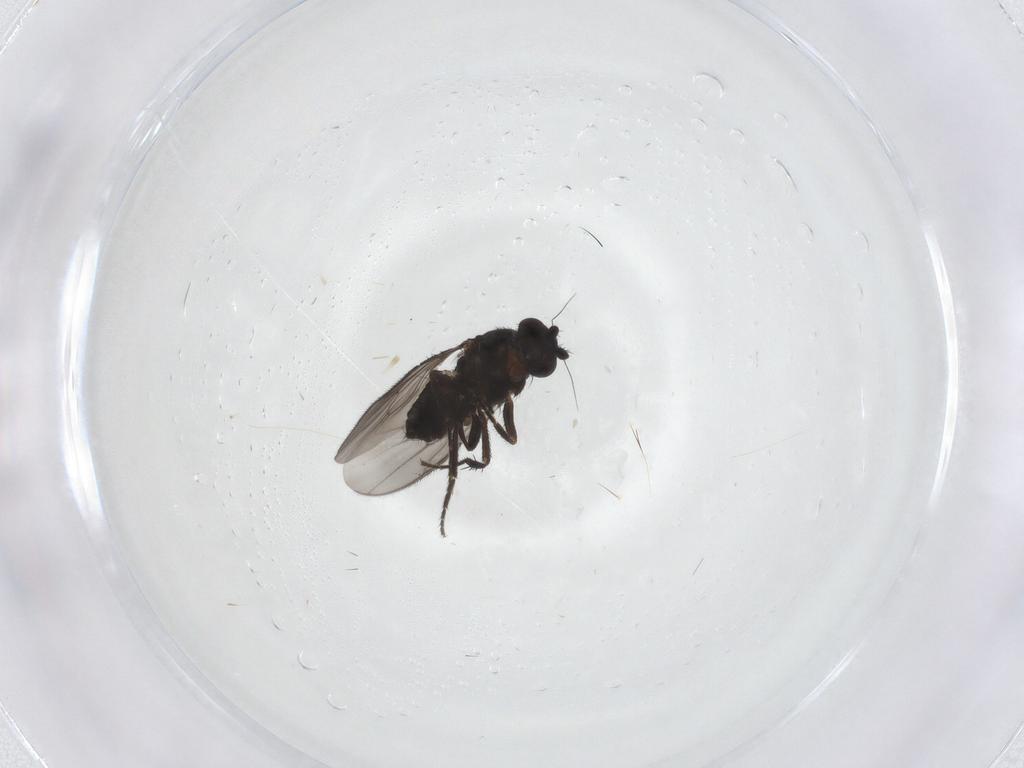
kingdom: Animalia
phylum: Arthropoda
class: Insecta
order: Diptera
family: Sphaeroceridae
